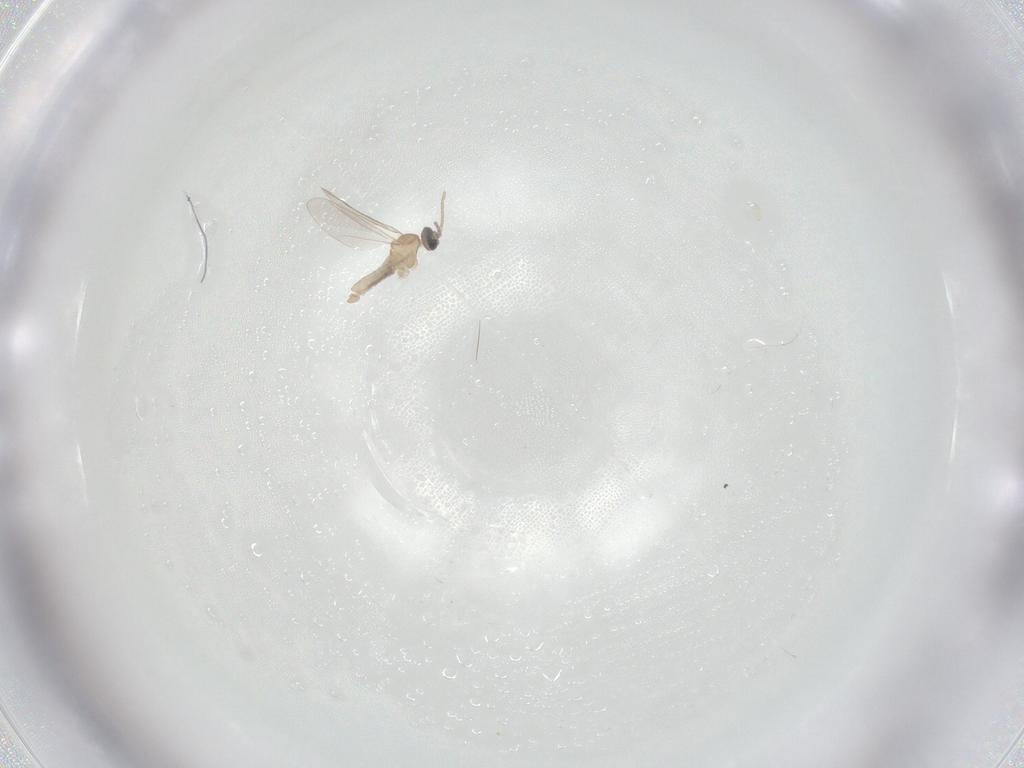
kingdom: Animalia
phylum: Arthropoda
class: Insecta
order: Diptera
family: Cecidomyiidae
